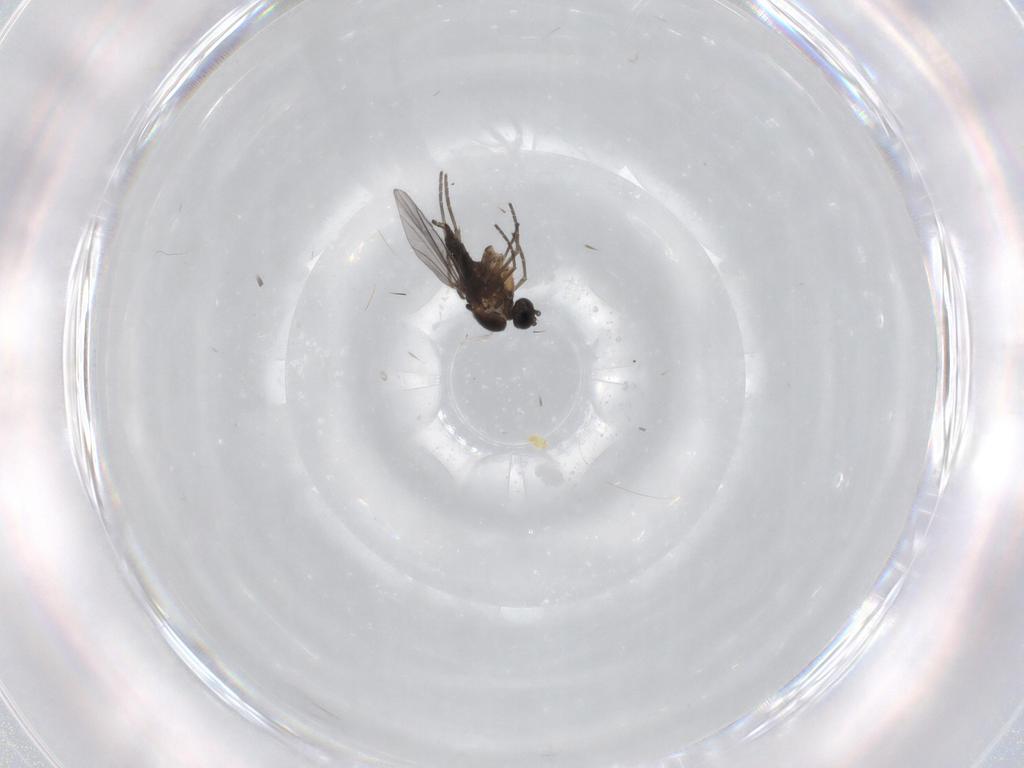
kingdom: Animalia
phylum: Arthropoda
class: Insecta
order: Diptera
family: Sciaridae
